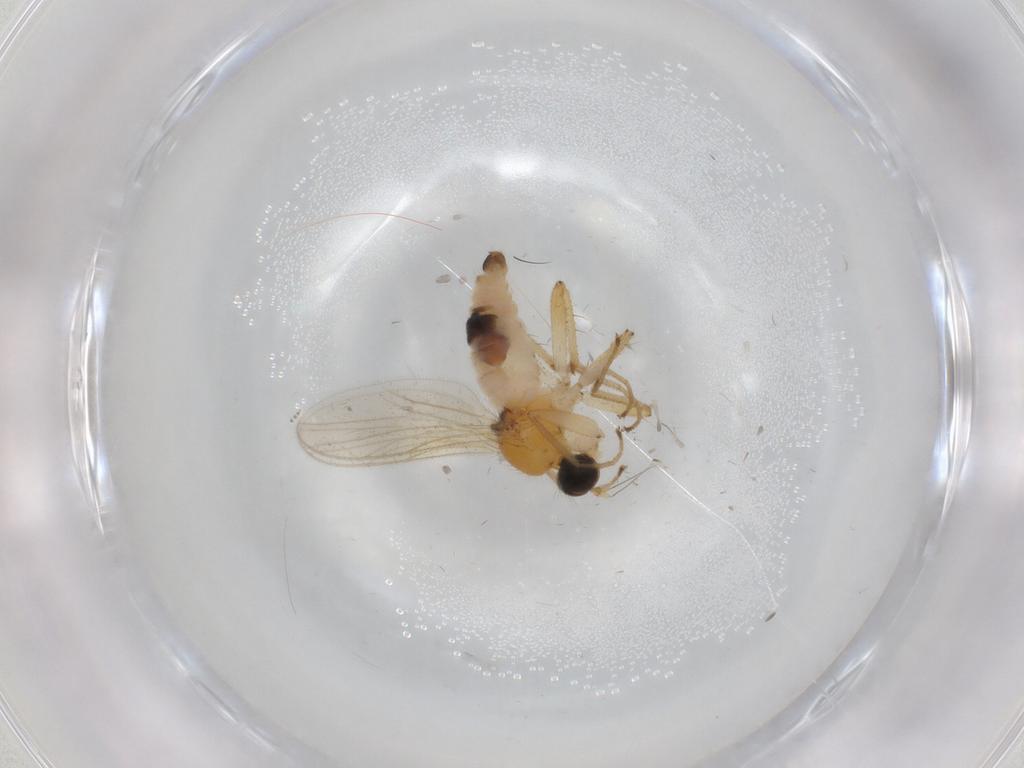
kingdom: Animalia
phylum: Arthropoda
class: Insecta
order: Diptera
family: Hybotidae
